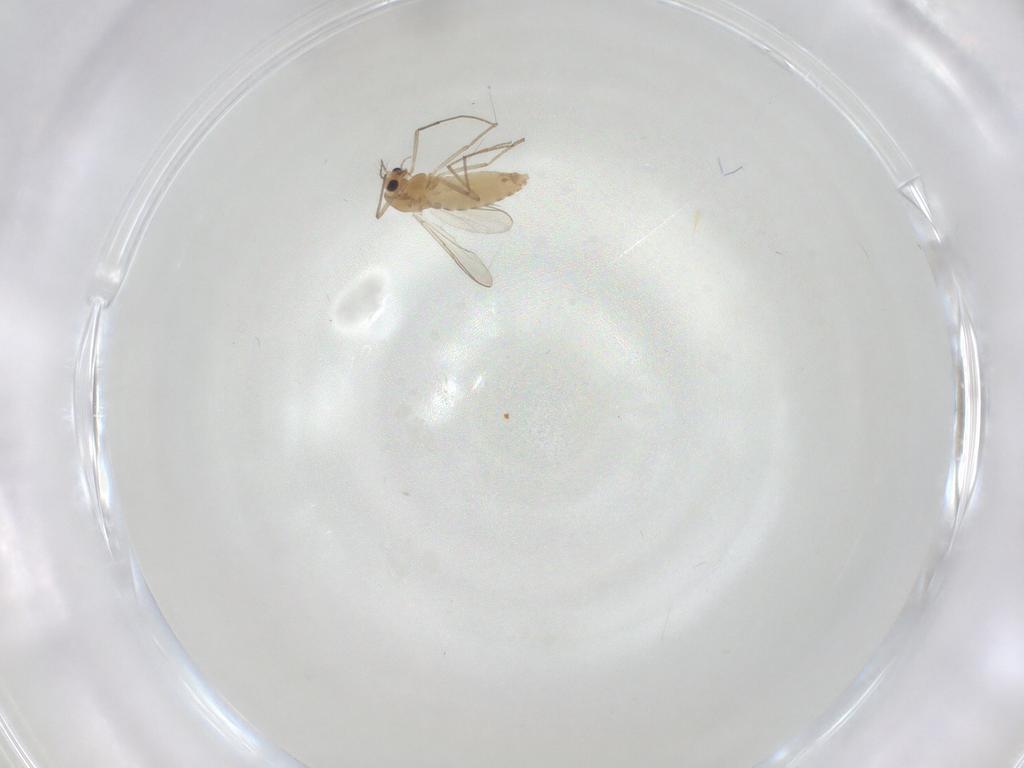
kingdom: Animalia
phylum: Arthropoda
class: Insecta
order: Diptera
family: Chironomidae
